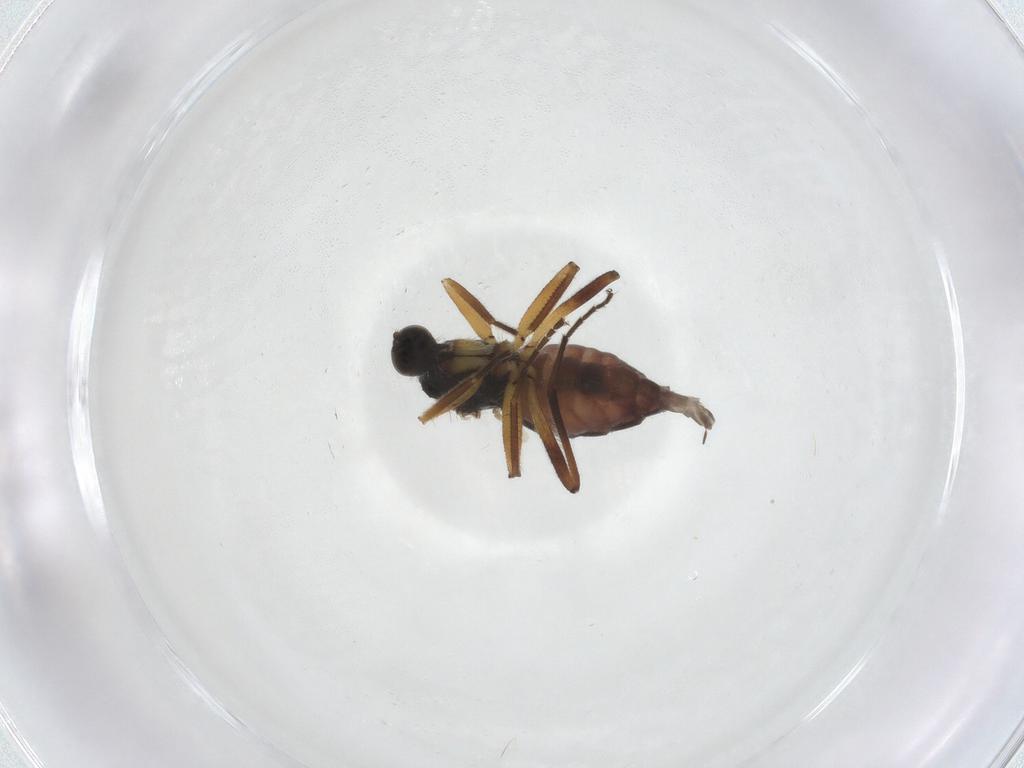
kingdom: Animalia
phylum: Arthropoda
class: Insecta
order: Diptera
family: Hybotidae
